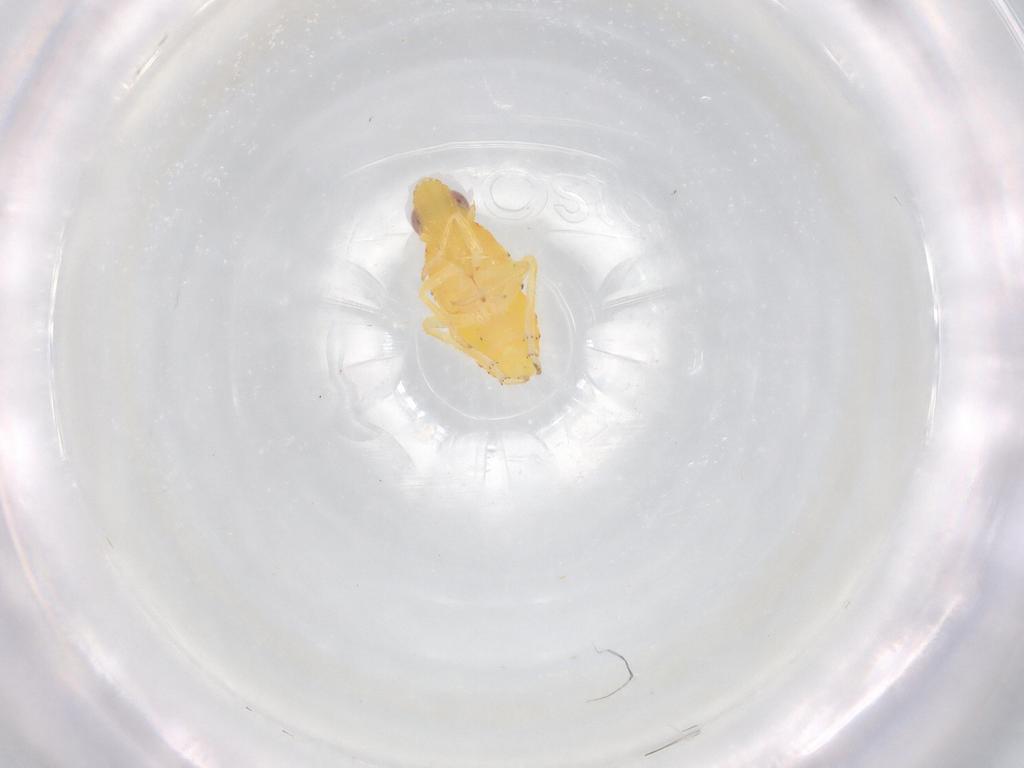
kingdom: Animalia
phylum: Arthropoda
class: Insecta
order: Hemiptera
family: Tropiduchidae
